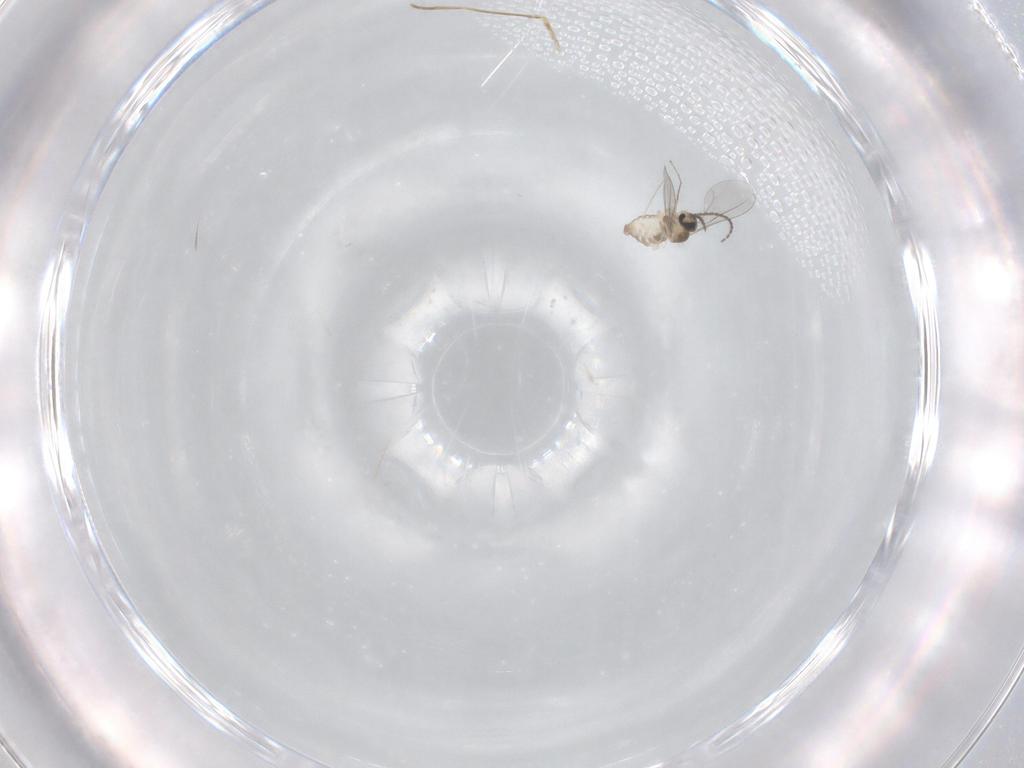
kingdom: Animalia
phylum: Arthropoda
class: Insecta
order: Diptera
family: Cecidomyiidae
